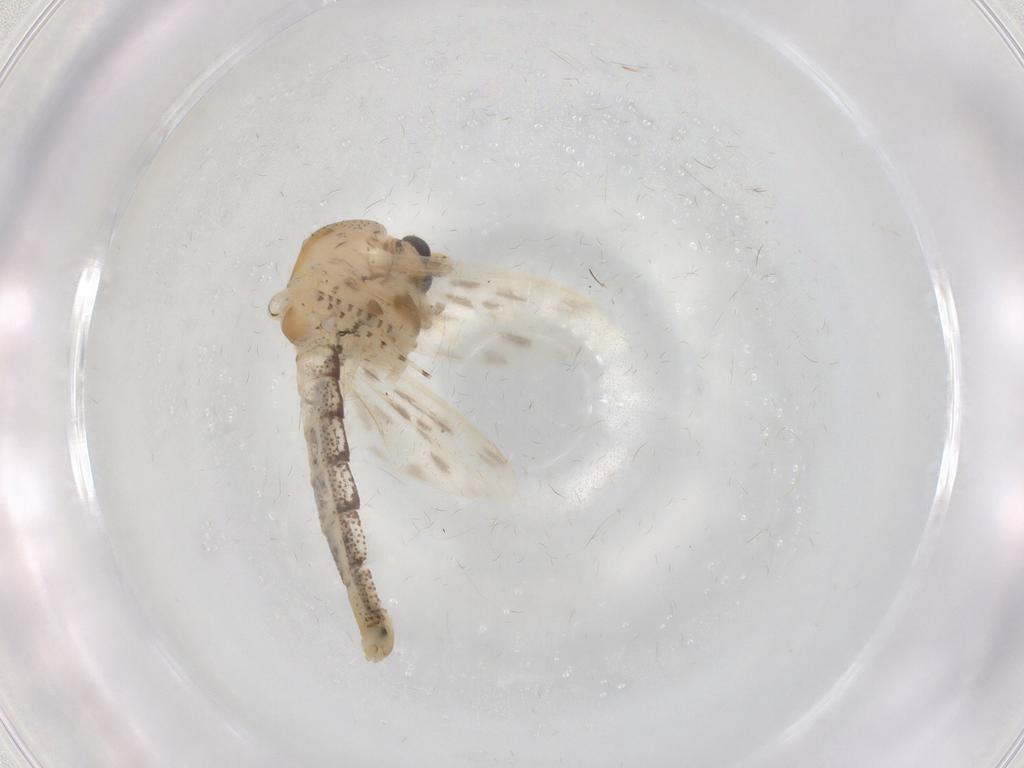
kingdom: Animalia
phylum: Arthropoda
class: Insecta
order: Diptera
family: Chaoboridae
